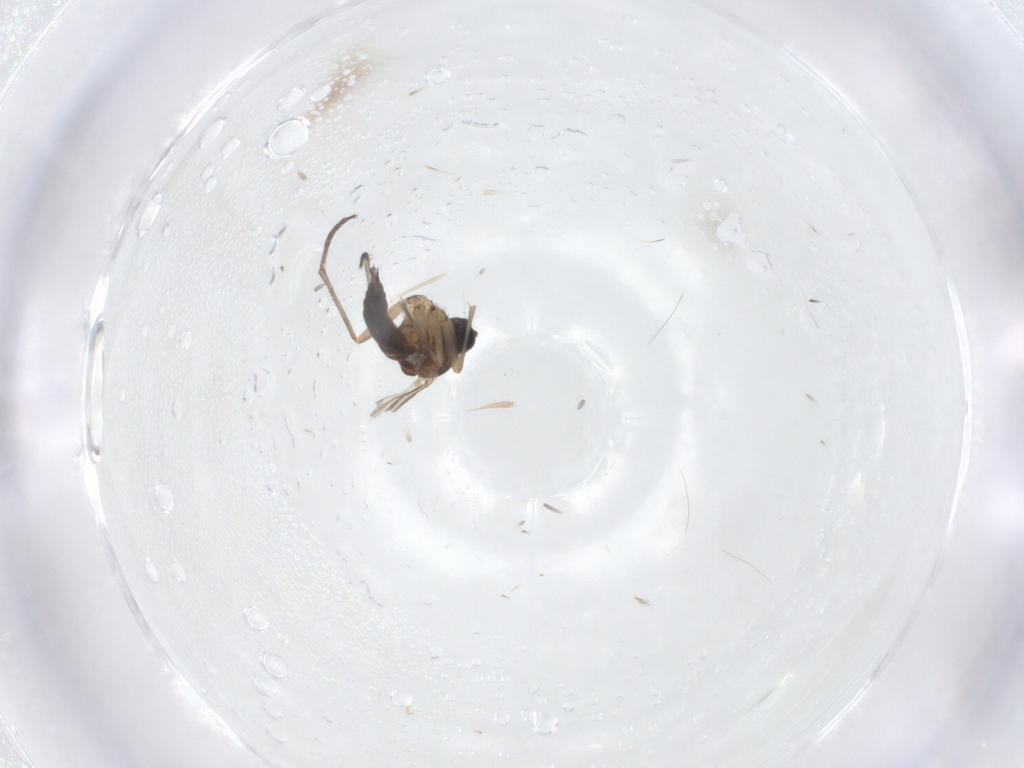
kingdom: Animalia
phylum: Arthropoda
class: Insecta
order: Diptera
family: Sciaridae
